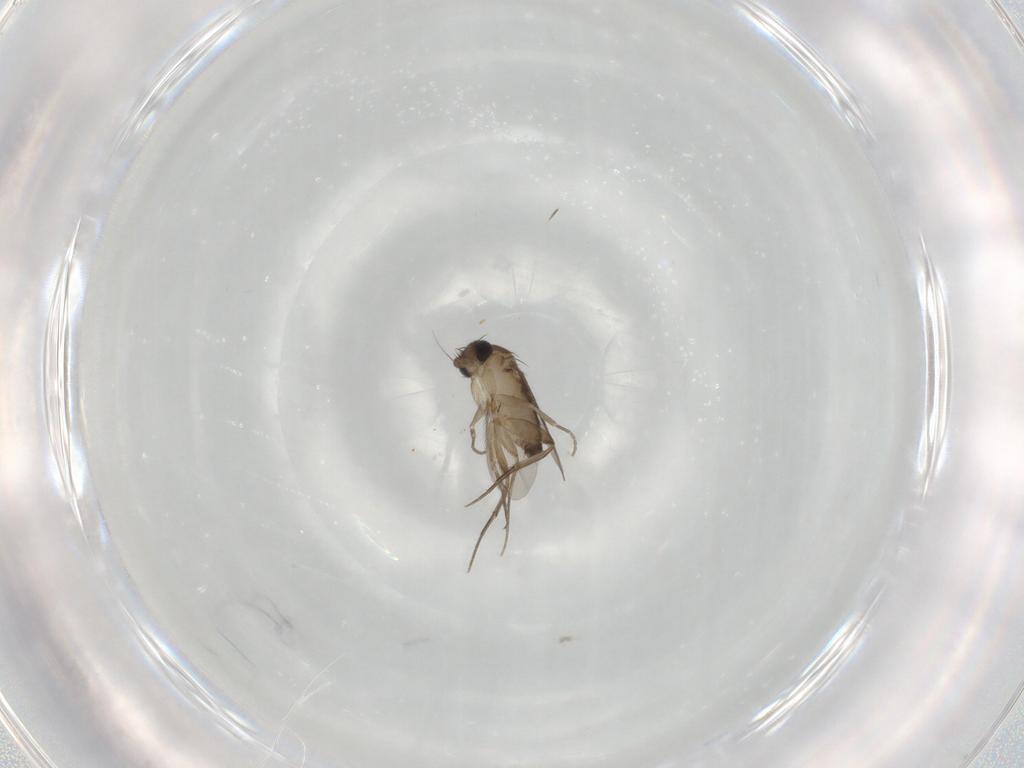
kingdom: Animalia
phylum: Arthropoda
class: Insecta
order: Diptera
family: Phoridae
